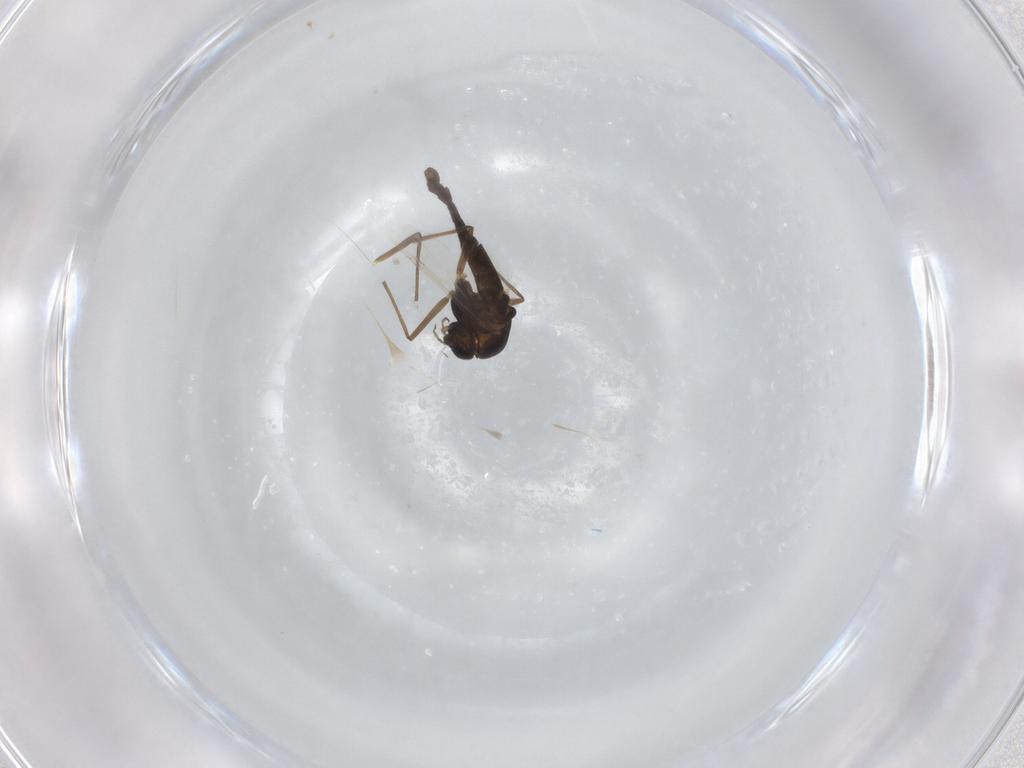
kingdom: Animalia
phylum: Arthropoda
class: Insecta
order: Diptera
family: Chironomidae
